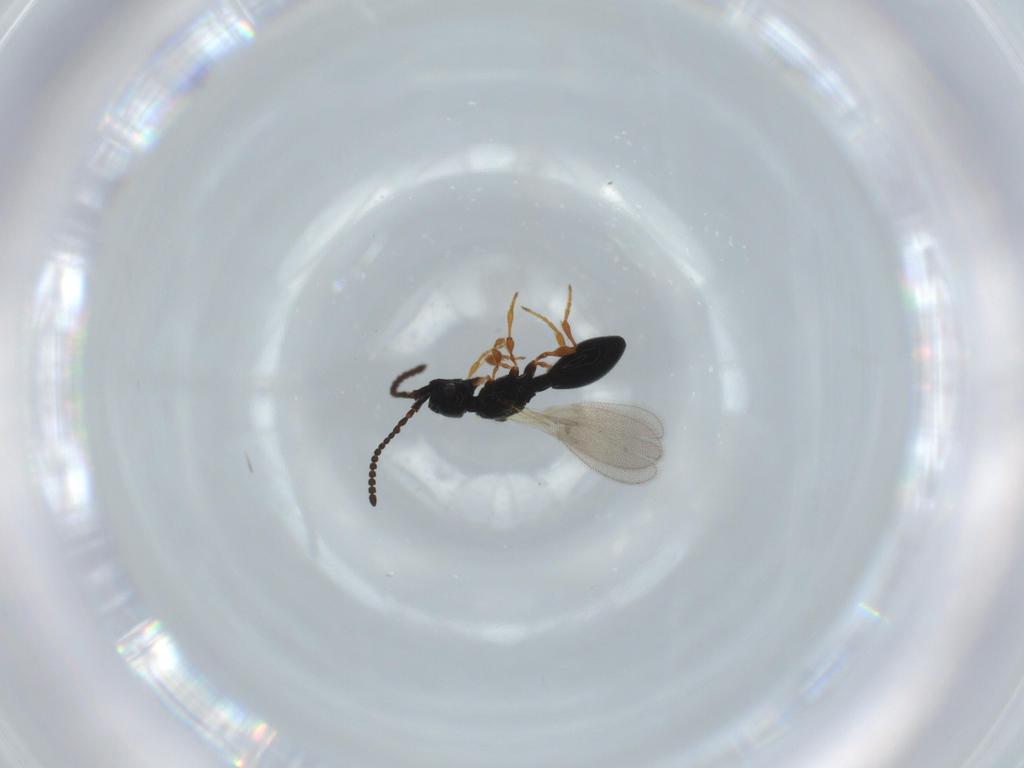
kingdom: Animalia
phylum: Arthropoda
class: Insecta
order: Hymenoptera
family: Diapriidae
